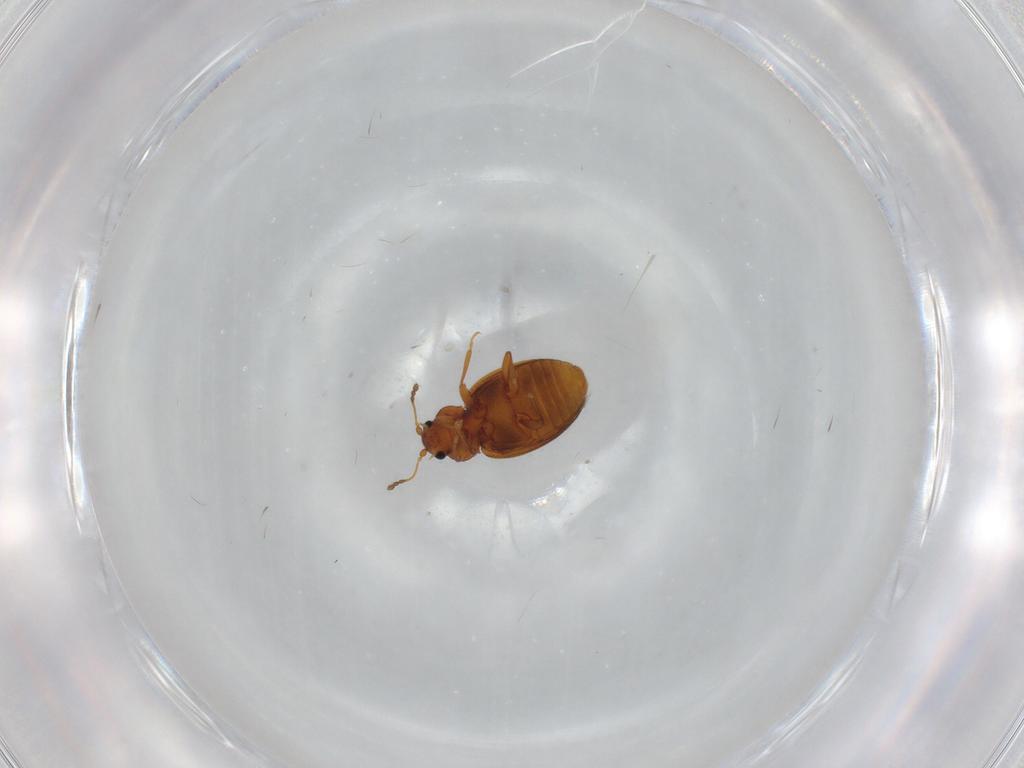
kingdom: Animalia
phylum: Arthropoda
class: Insecta
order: Coleoptera
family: Latridiidae
